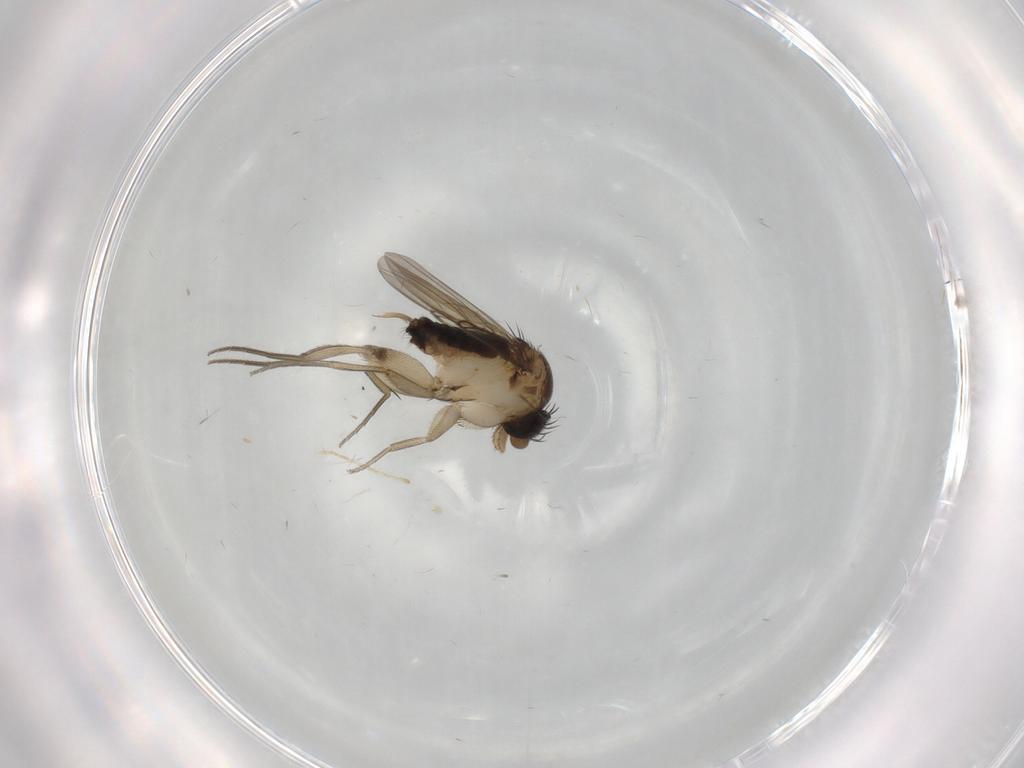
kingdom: Animalia
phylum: Arthropoda
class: Insecta
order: Diptera
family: Phoridae
